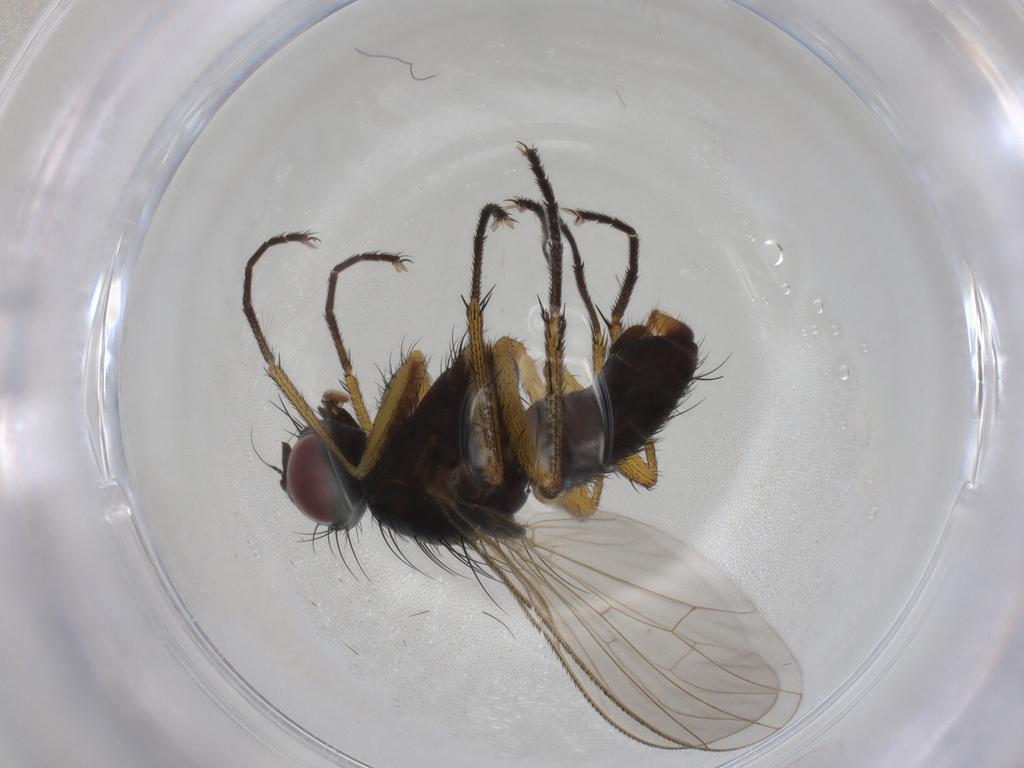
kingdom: Animalia
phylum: Arthropoda
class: Insecta
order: Diptera
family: Muscidae
